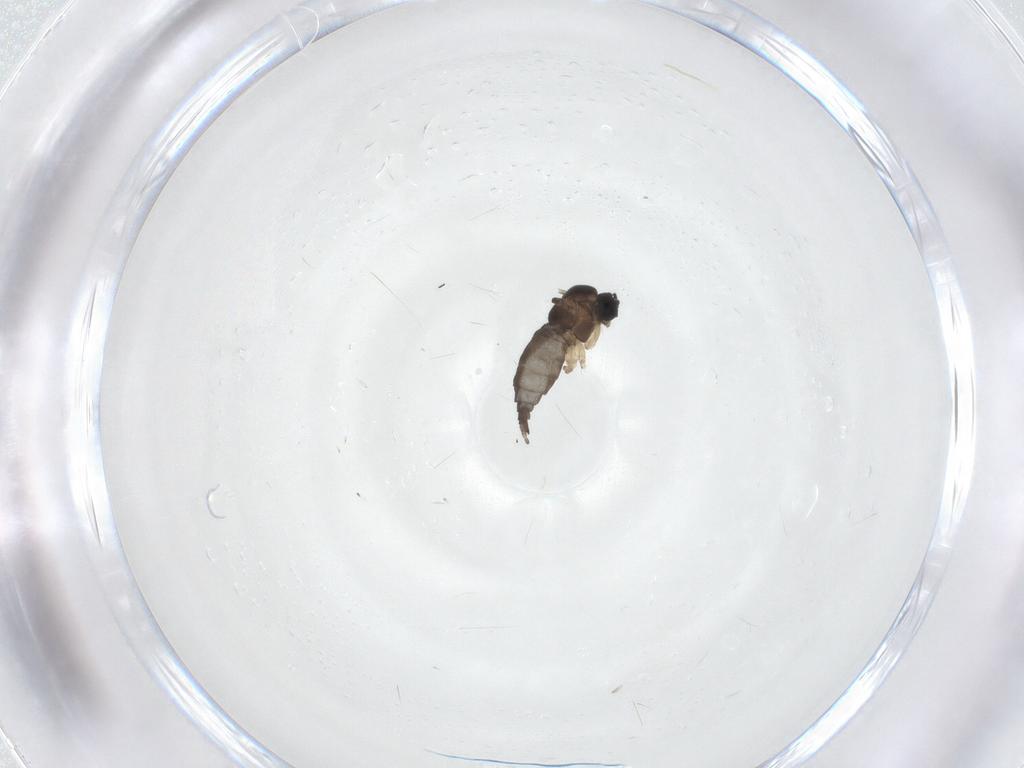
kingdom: Animalia
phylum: Arthropoda
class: Insecta
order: Diptera
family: Sciaridae
